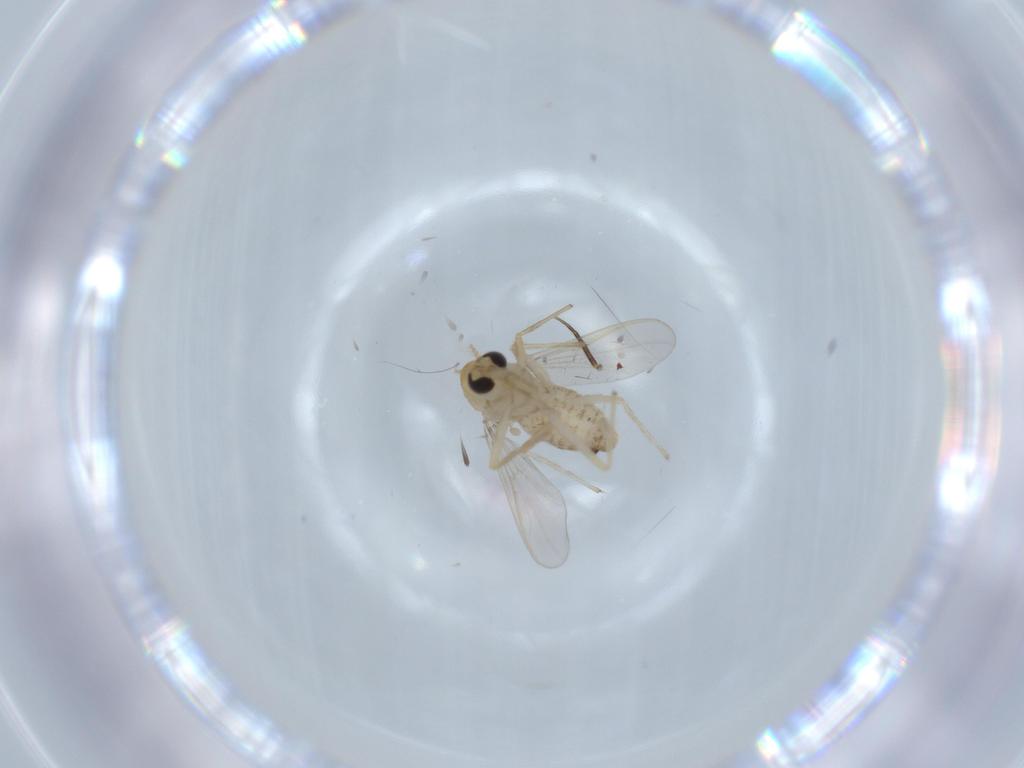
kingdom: Animalia
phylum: Arthropoda
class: Insecta
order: Diptera
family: Chironomidae
